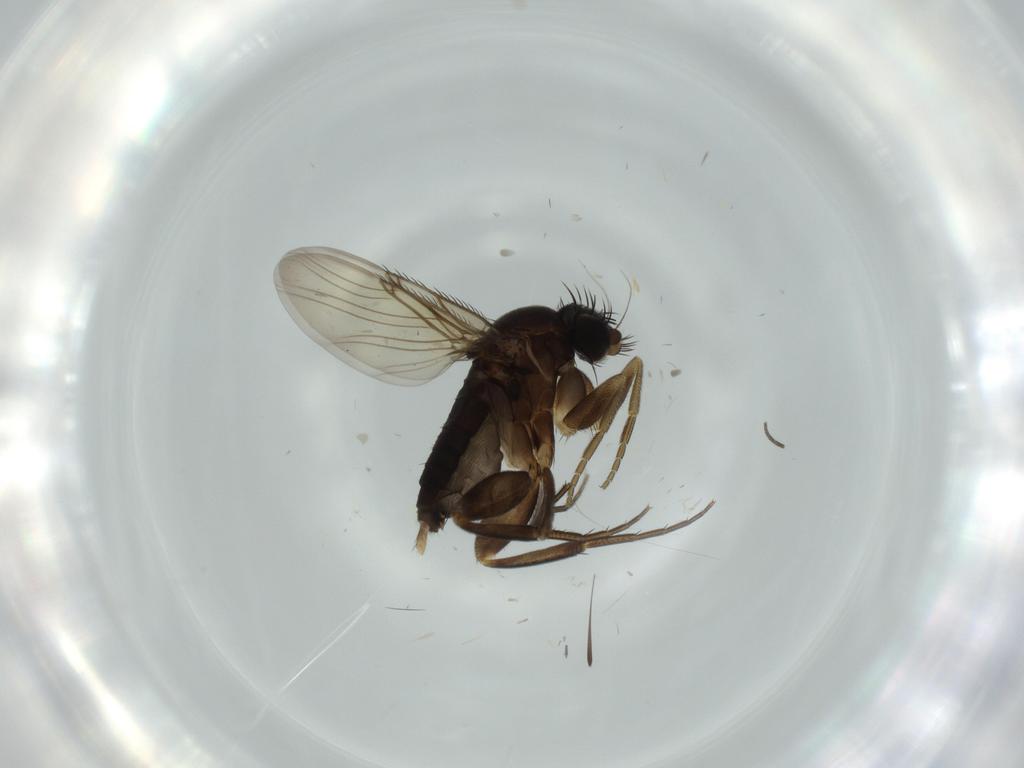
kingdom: Animalia
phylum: Arthropoda
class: Insecta
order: Diptera
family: Phoridae
